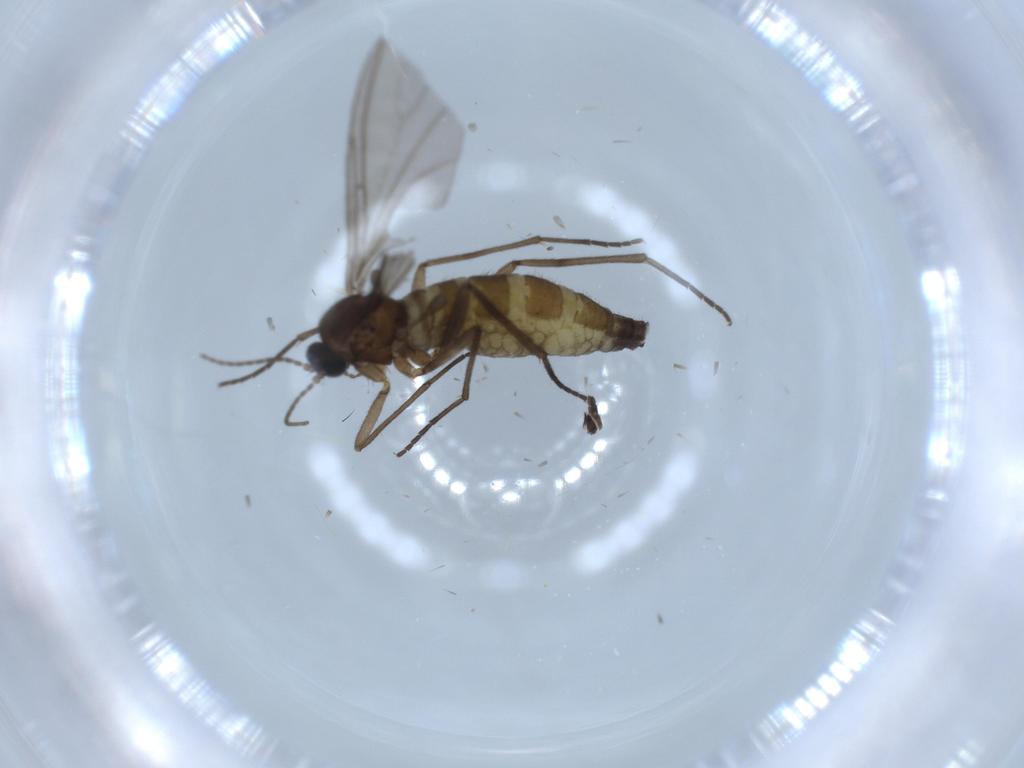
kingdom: Animalia
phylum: Arthropoda
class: Insecta
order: Diptera
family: Sciaridae
